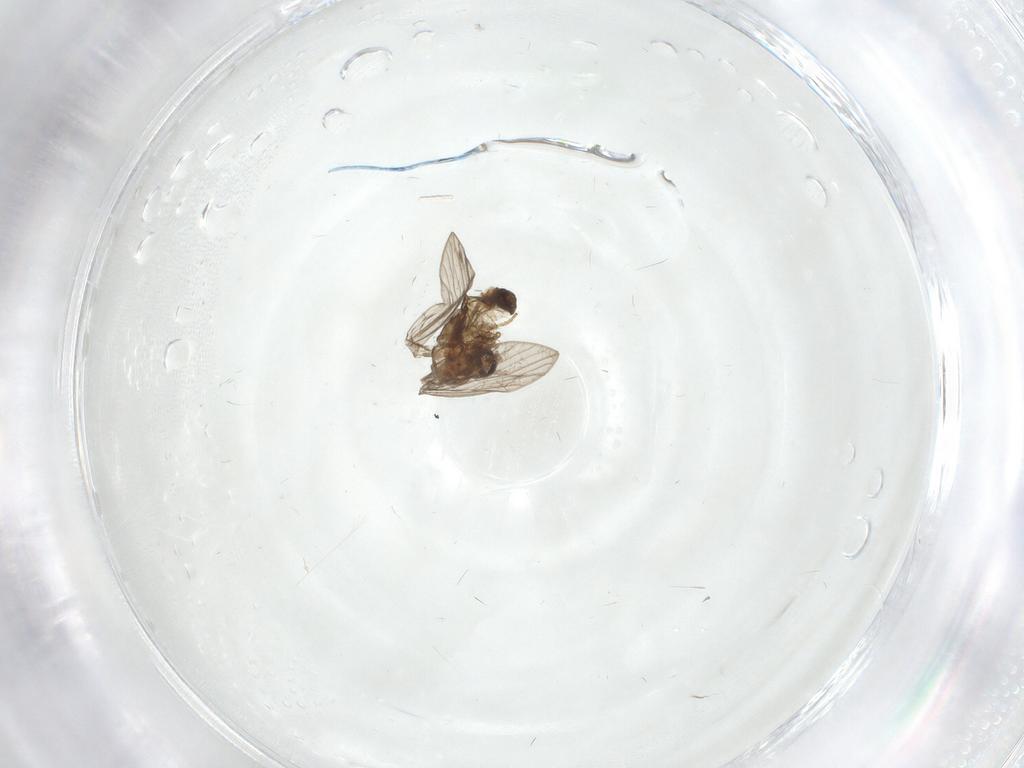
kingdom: Animalia
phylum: Arthropoda
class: Insecta
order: Diptera
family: Psychodidae
